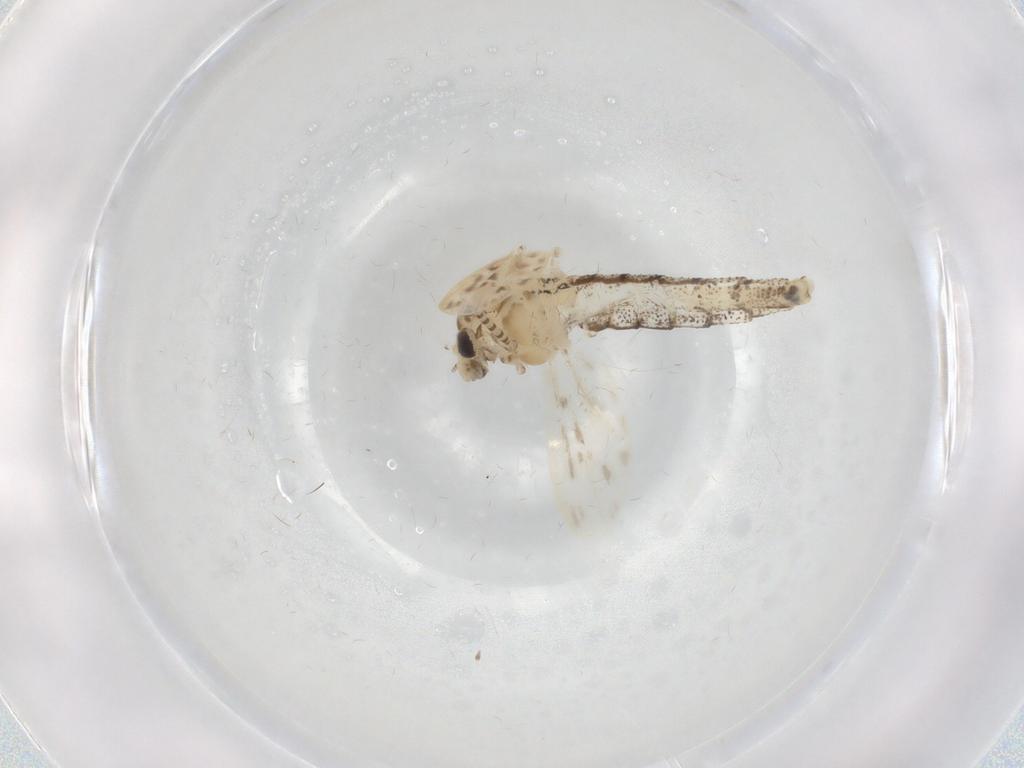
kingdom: Animalia
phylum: Arthropoda
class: Insecta
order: Diptera
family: Chaoboridae
